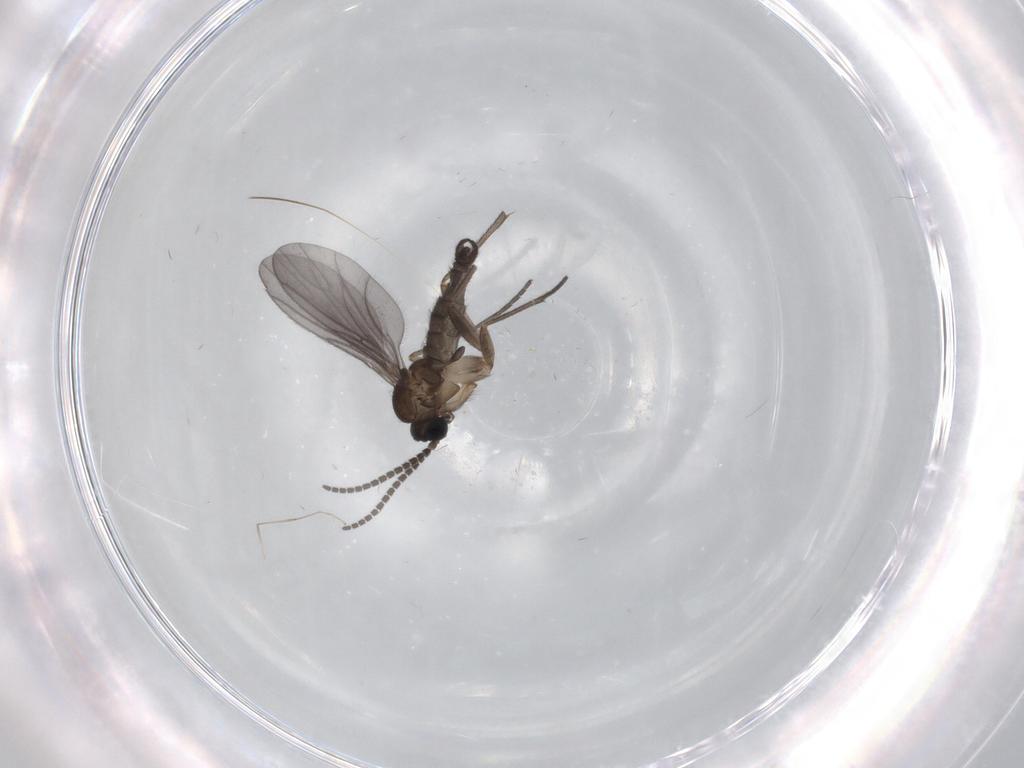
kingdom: Animalia
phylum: Arthropoda
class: Insecta
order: Diptera
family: Sciaridae
